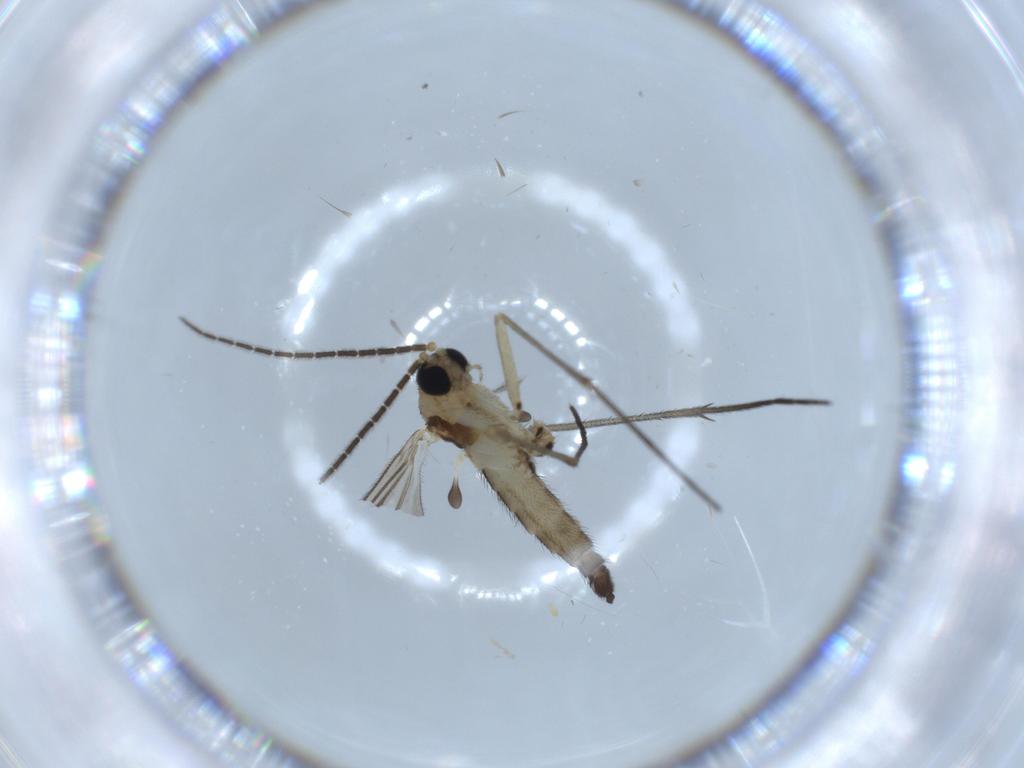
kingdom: Animalia
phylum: Arthropoda
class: Insecta
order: Diptera
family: Sciaridae
